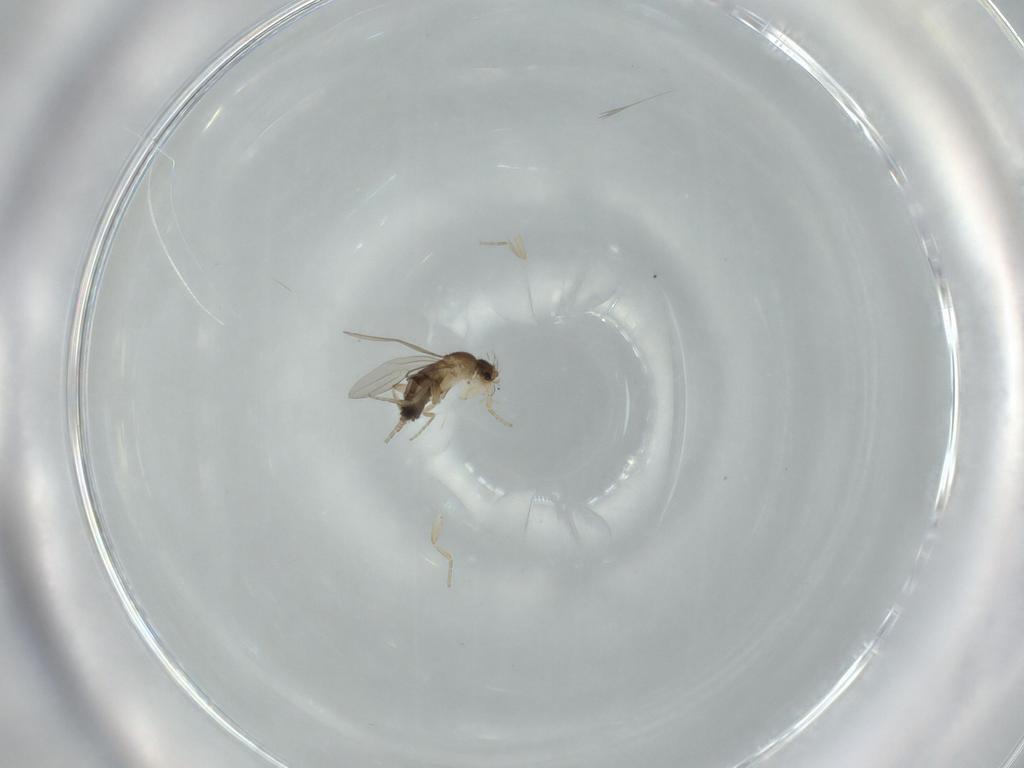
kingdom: Animalia
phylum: Arthropoda
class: Insecta
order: Diptera
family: Phoridae
